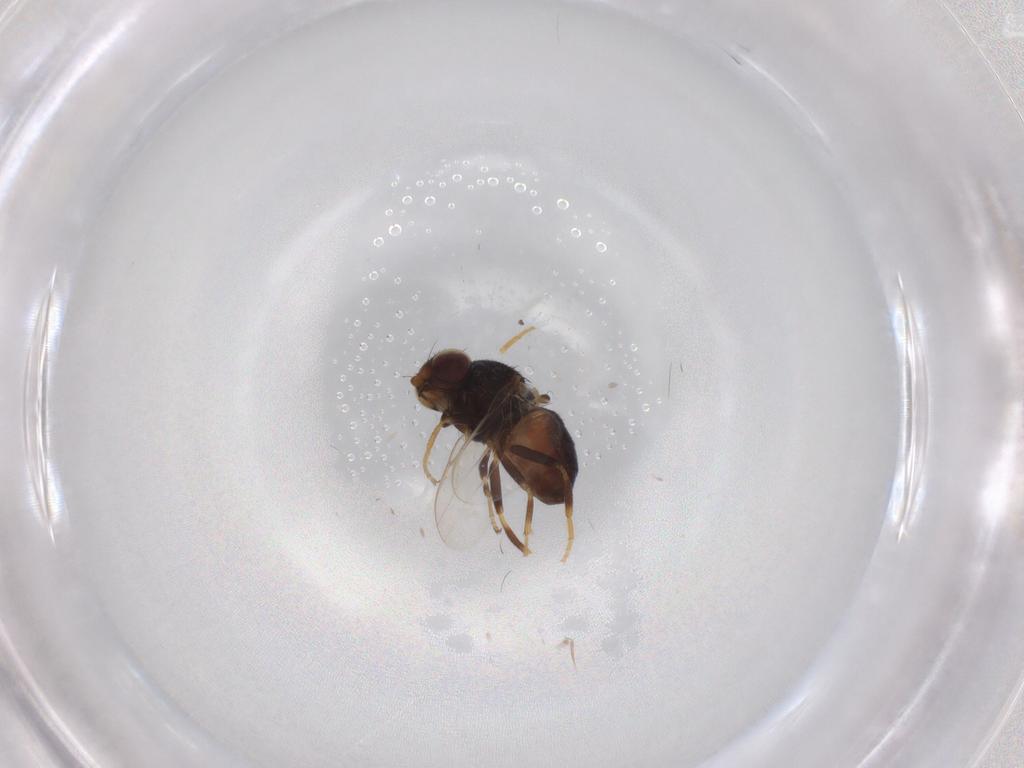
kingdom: Animalia
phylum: Arthropoda
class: Insecta
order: Diptera
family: Chloropidae
